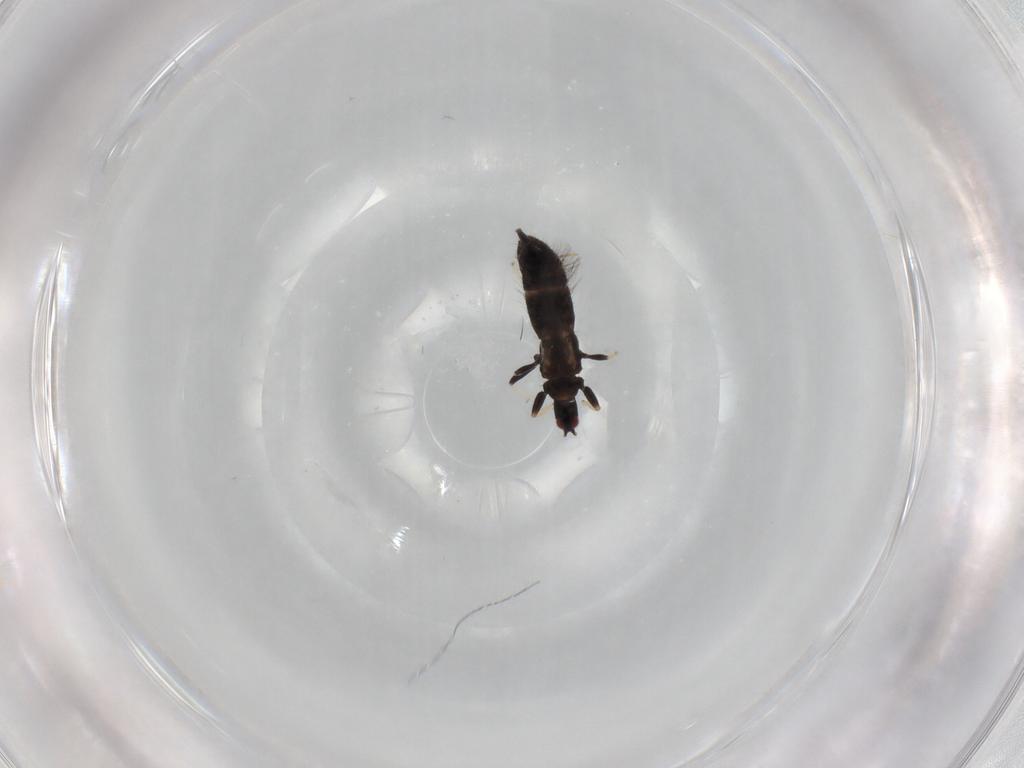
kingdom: Animalia
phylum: Arthropoda
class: Insecta
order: Thysanoptera
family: Phlaeothripidae
